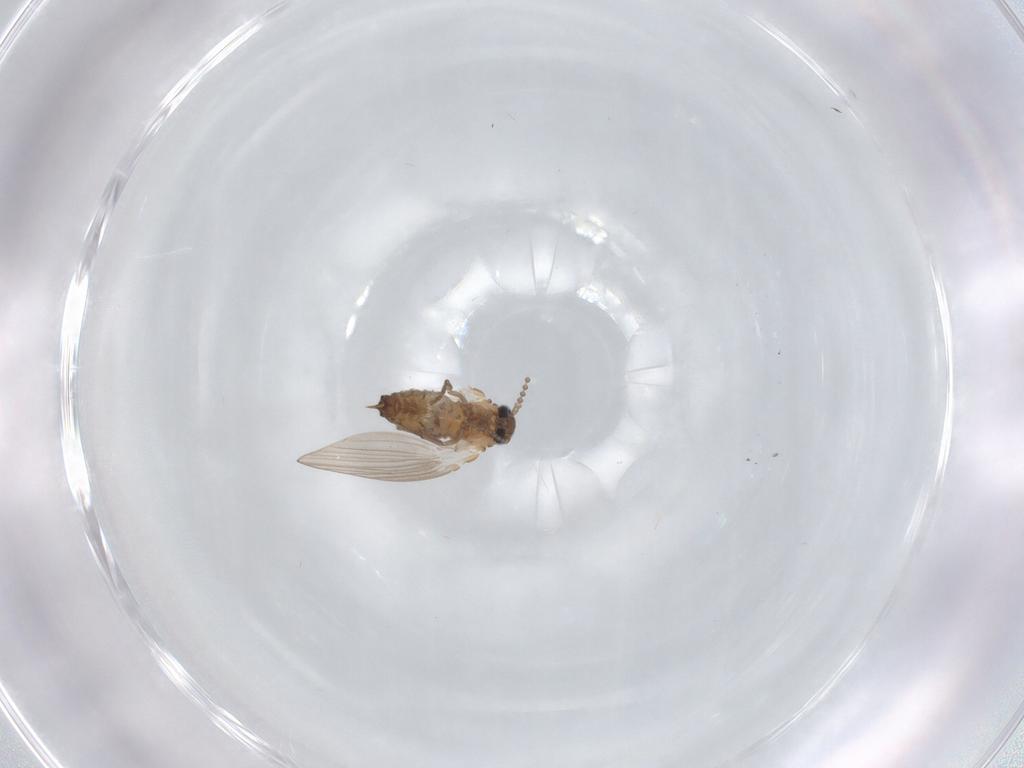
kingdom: Animalia
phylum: Arthropoda
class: Insecta
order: Diptera
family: Psychodidae
